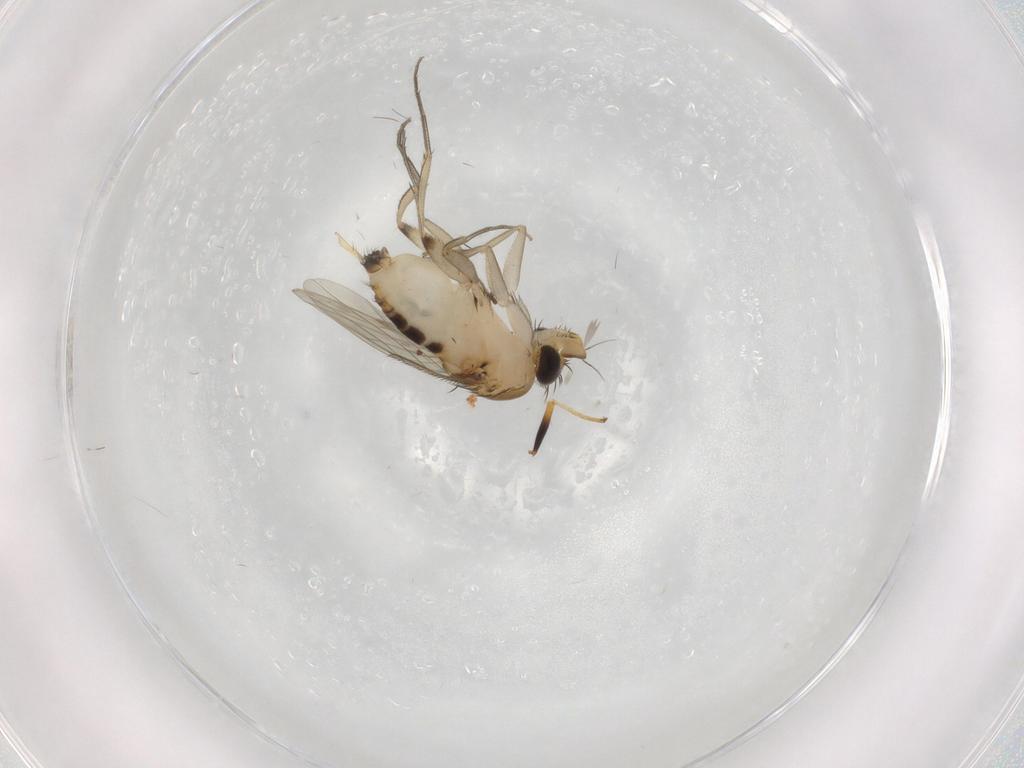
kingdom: Animalia
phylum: Arthropoda
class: Insecta
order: Diptera
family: Phoridae
